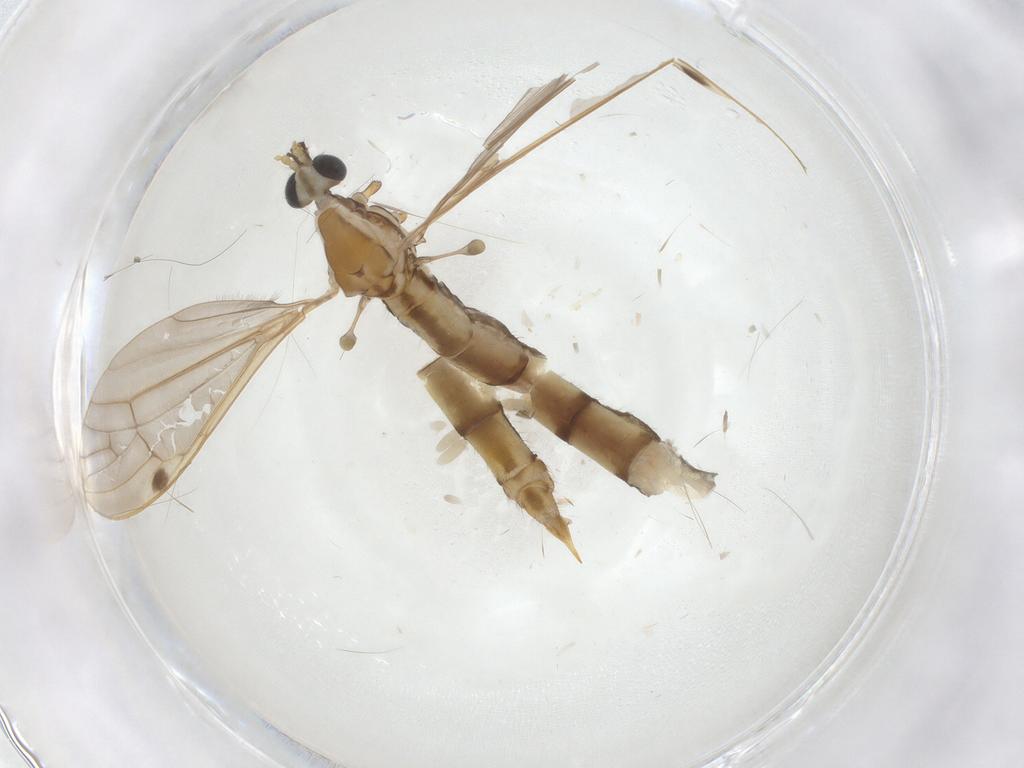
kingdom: Animalia
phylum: Arthropoda
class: Insecta
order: Diptera
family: Limoniidae
